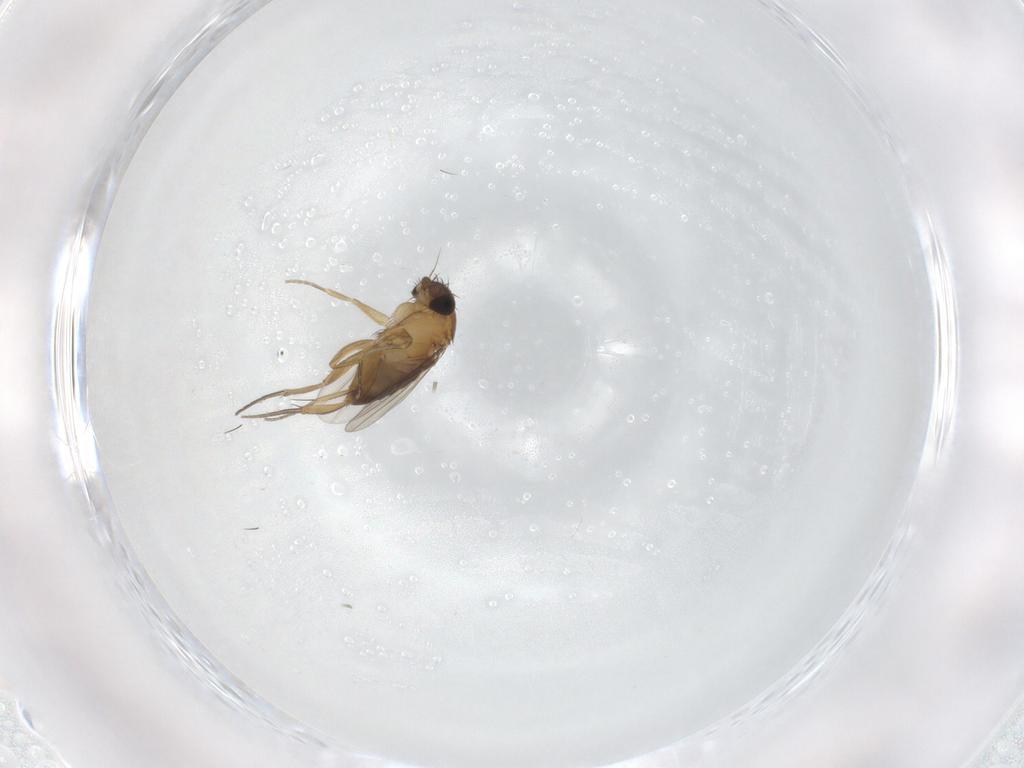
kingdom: Animalia
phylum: Arthropoda
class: Insecta
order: Diptera
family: Phoridae
